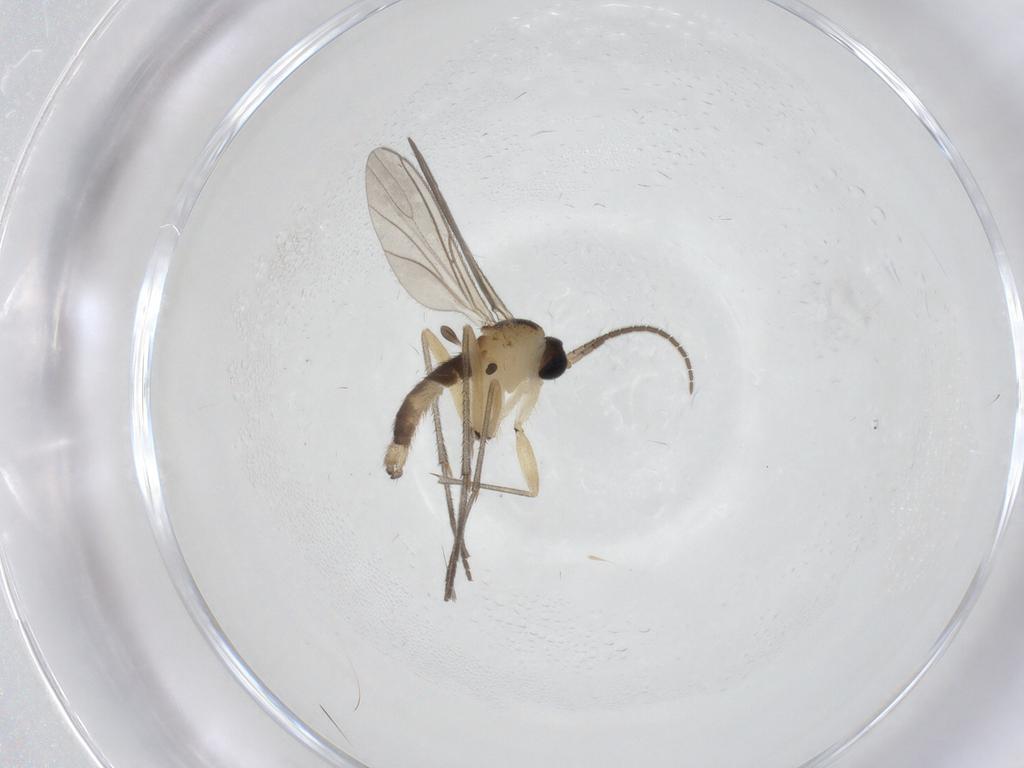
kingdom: Animalia
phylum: Arthropoda
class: Insecta
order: Diptera
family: Sciaridae
